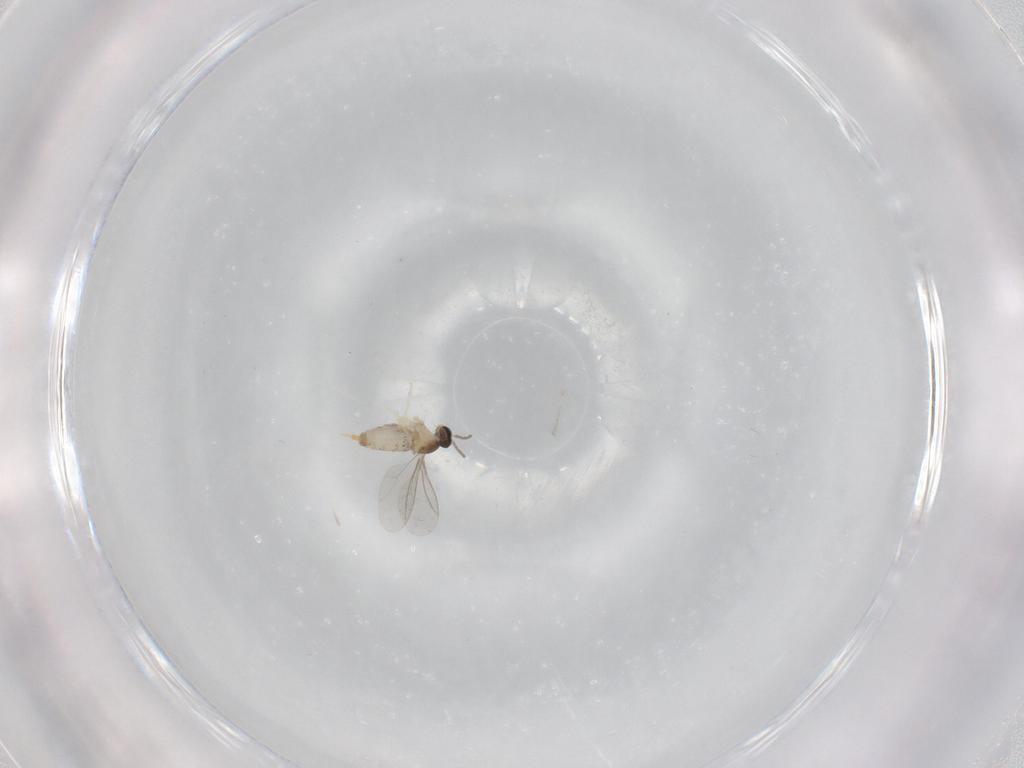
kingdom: Animalia
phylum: Arthropoda
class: Insecta
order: Diptera
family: Cecidomyiidae
